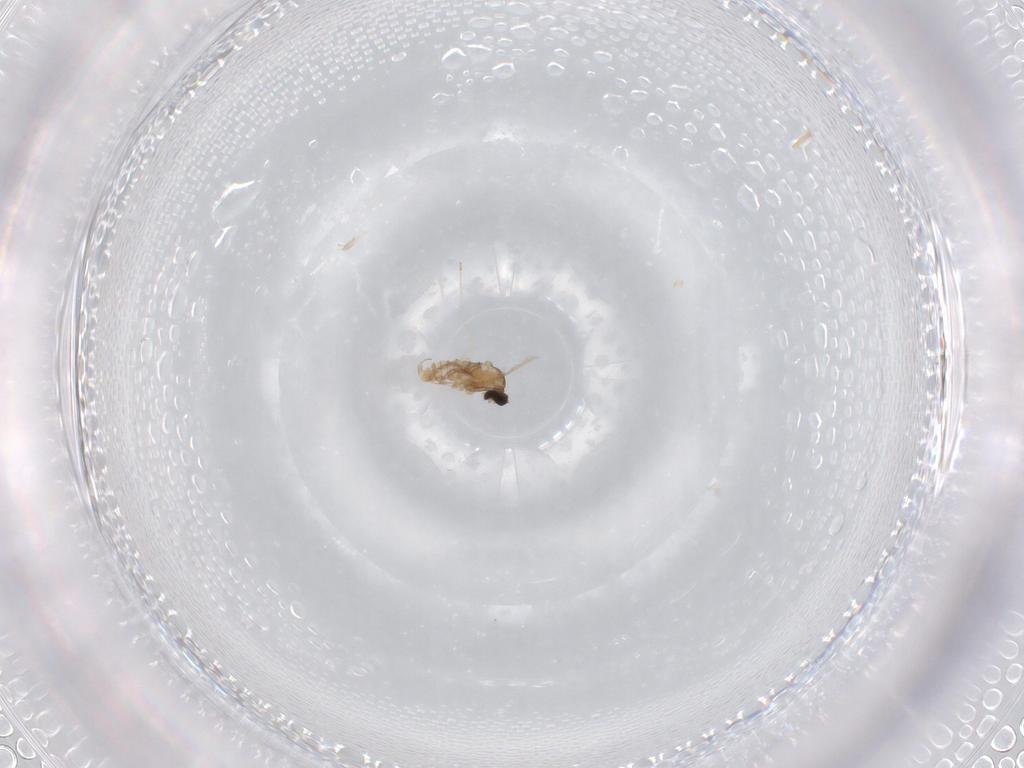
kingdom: Animalia
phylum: Arthropoda
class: Insecta
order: Diptera
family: Cecidomyiidae
